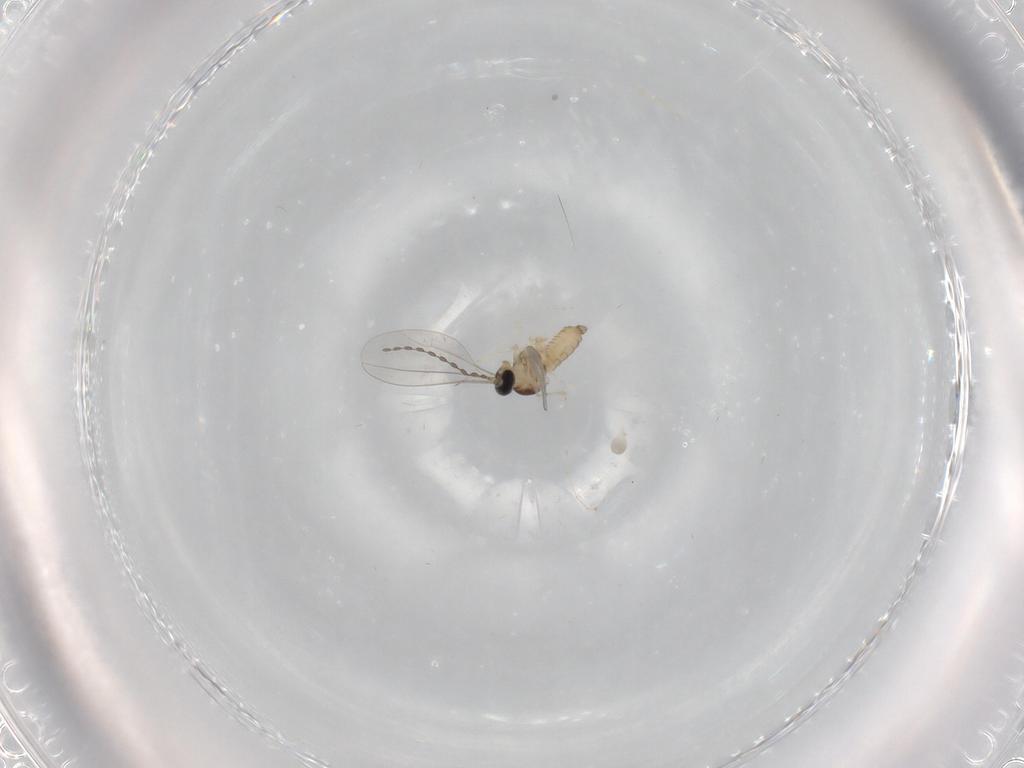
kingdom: Animalia
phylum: Arthropoda
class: Insecta
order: Diptera
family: Cecidomyiidae
